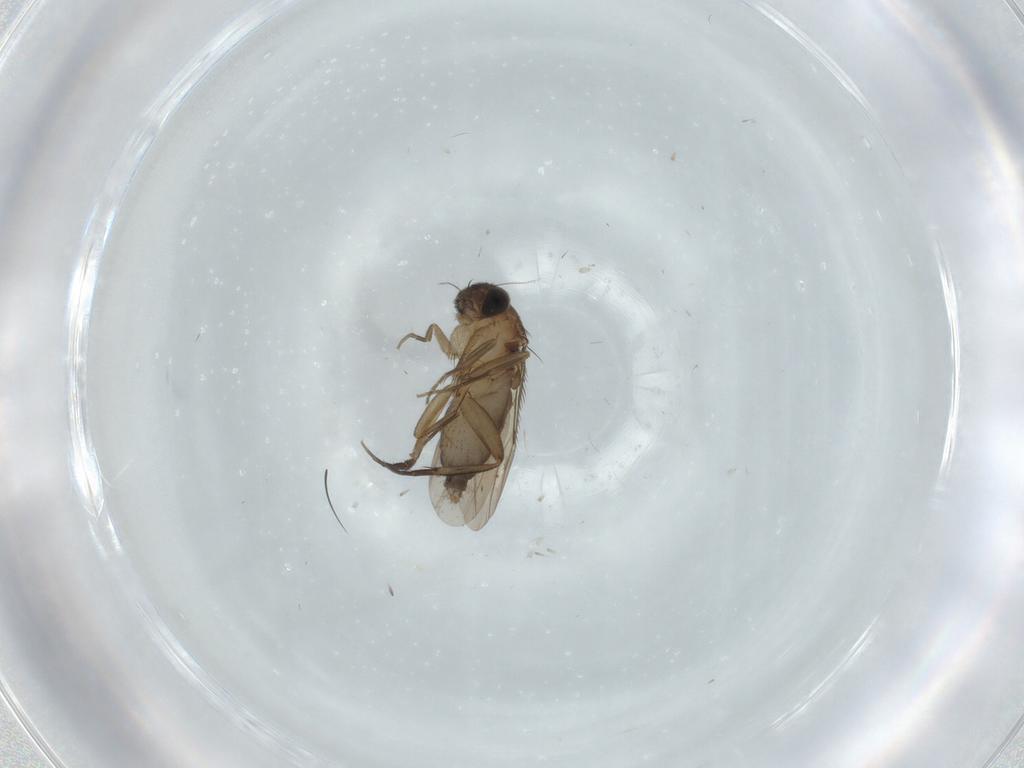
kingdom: Animalia
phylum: Arthropoda
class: Insecta
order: Diptera
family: Phoridae
